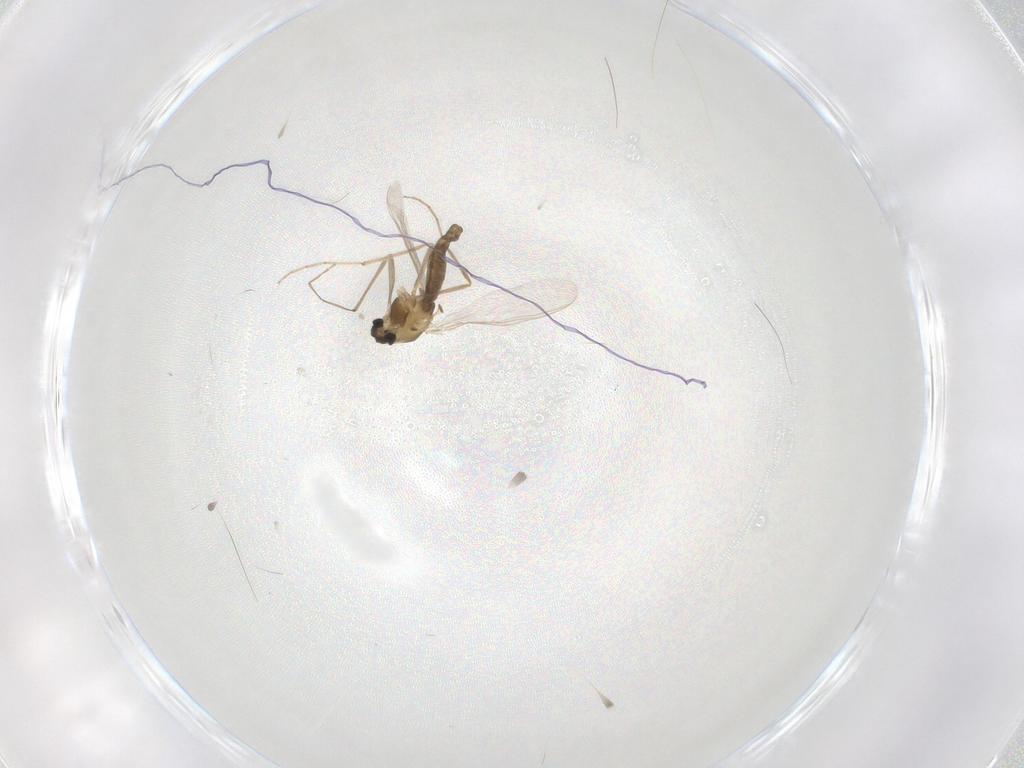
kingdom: Animalia
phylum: Arthropoda
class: Insecta
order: Diptera
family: Chironomidae
